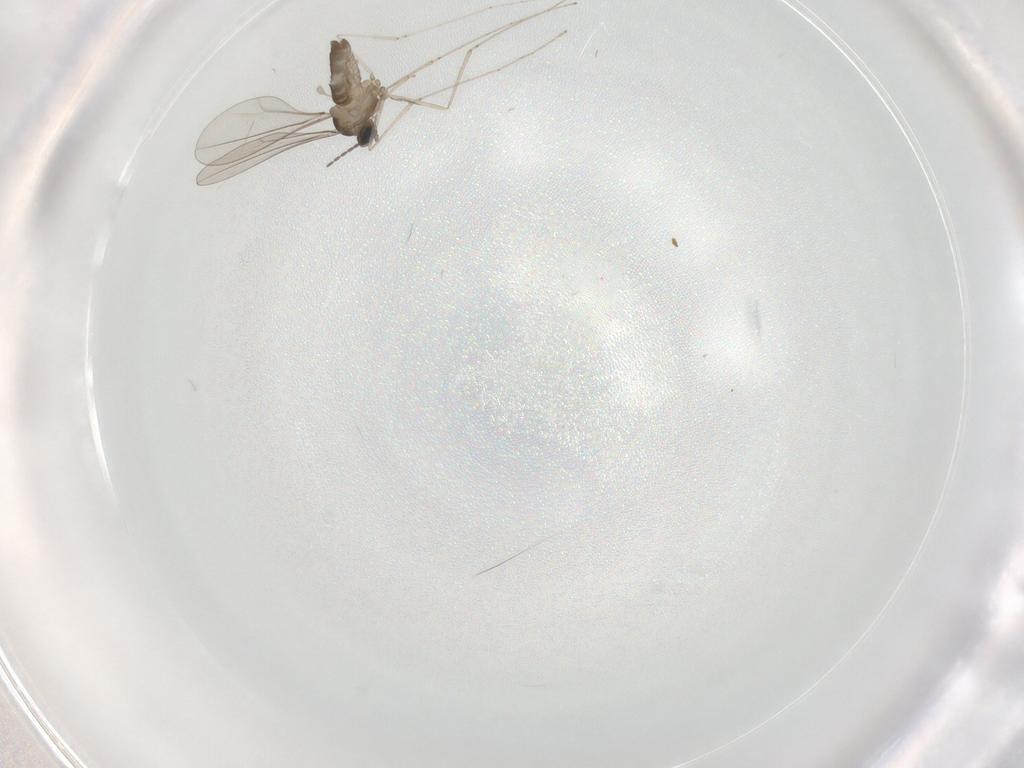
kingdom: Animalia
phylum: Arthropoda
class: Insecta
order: Diptera
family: Cecidomyiidae
